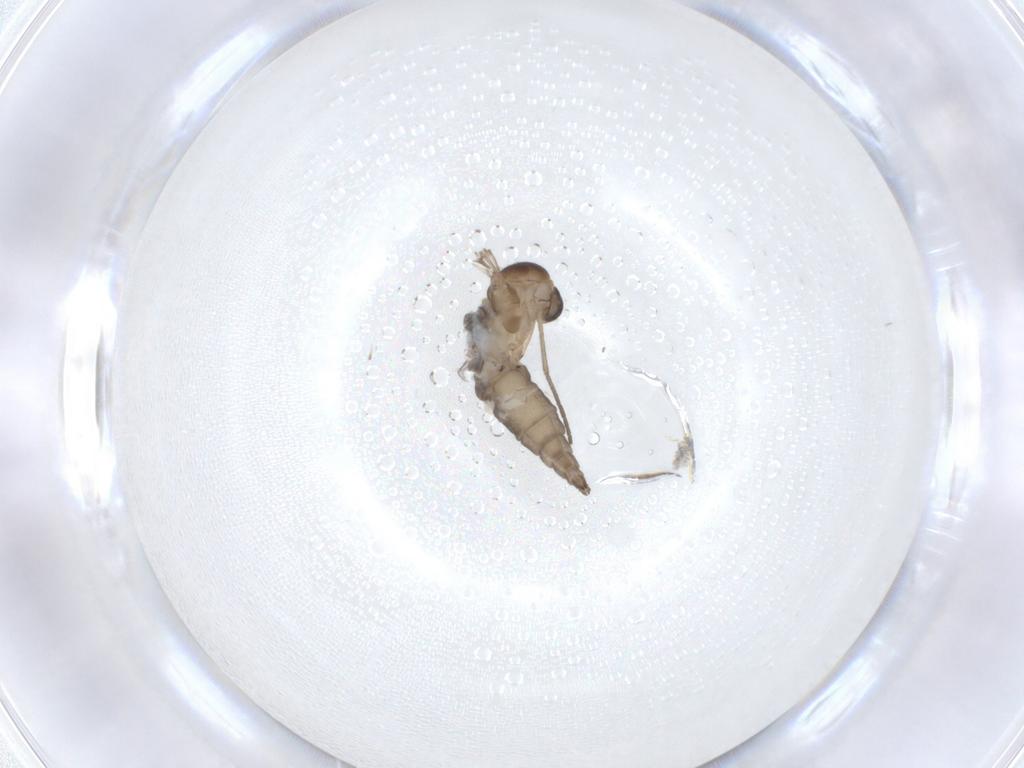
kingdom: Animalia
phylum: Arthropoda
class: Insecta
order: Diptera
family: Sciaridae
